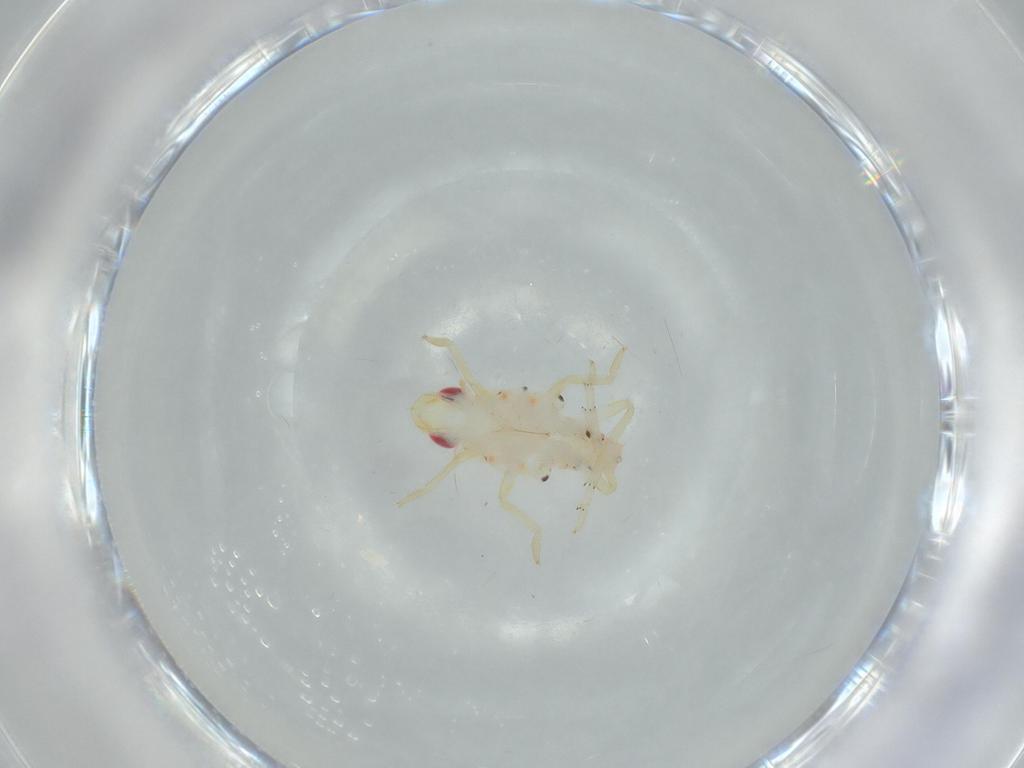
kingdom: Animalia
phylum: Arthropoda
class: Insecta
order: Hemiptera
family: Tropiduchidae
